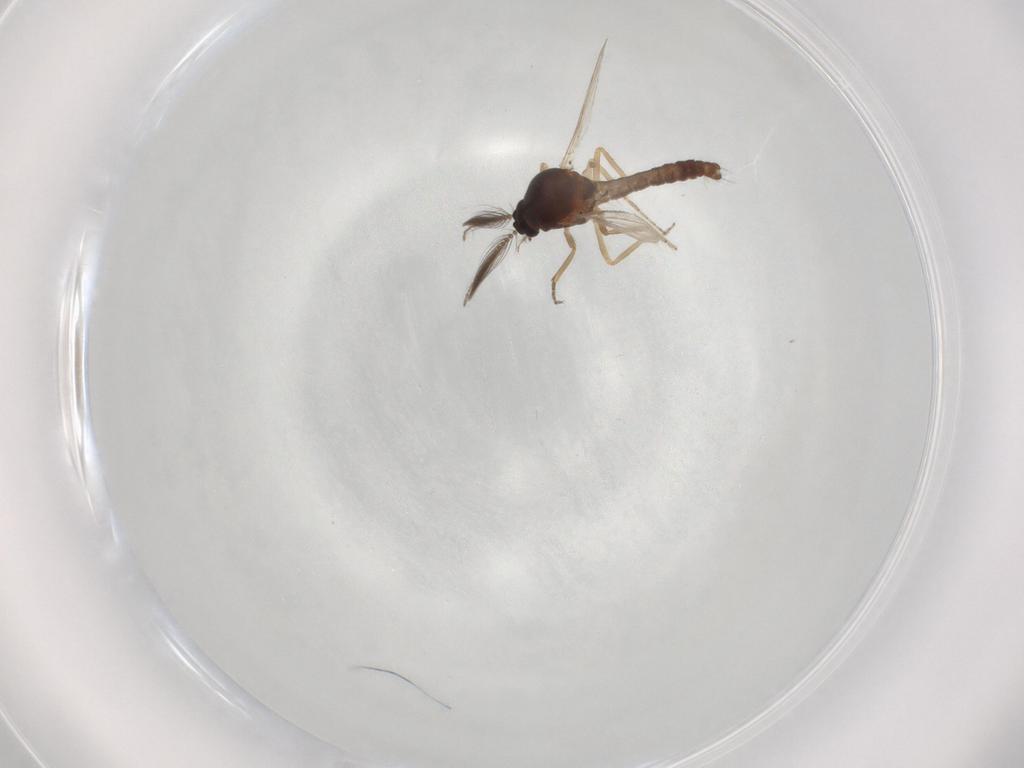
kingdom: Animalia
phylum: Arthropoda
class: Insecta
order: Diptera
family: Ceratopogonidae
